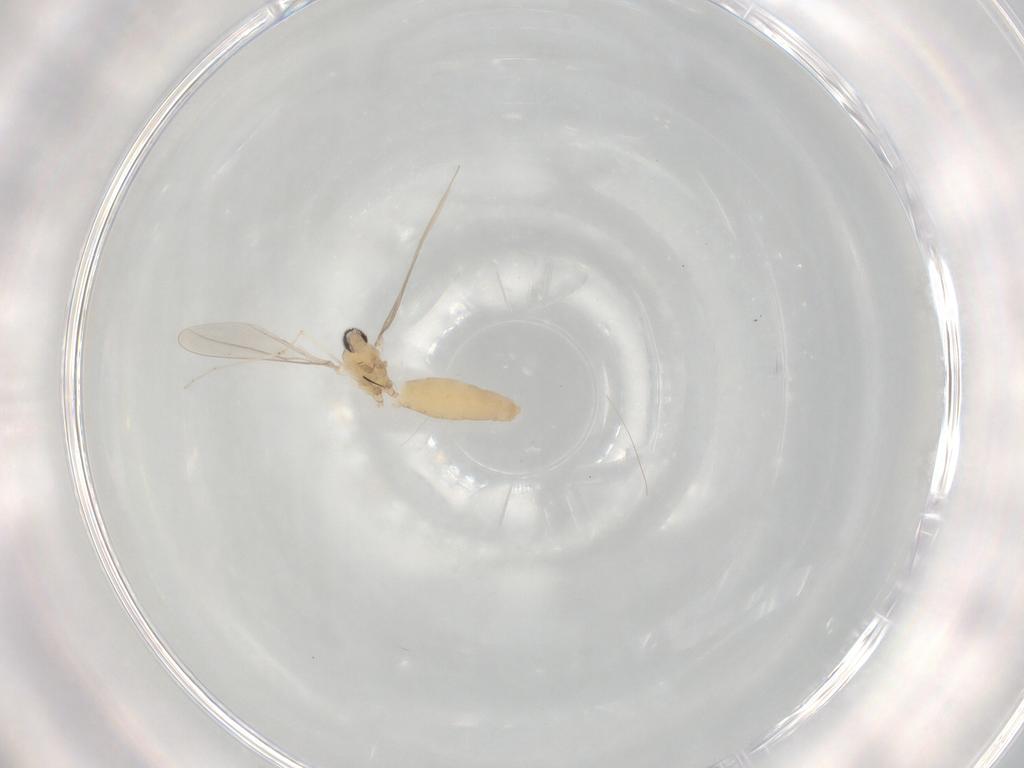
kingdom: Animalia
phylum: Arthropoda
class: Insecta
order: Diptera
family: Cecidomyiidae
